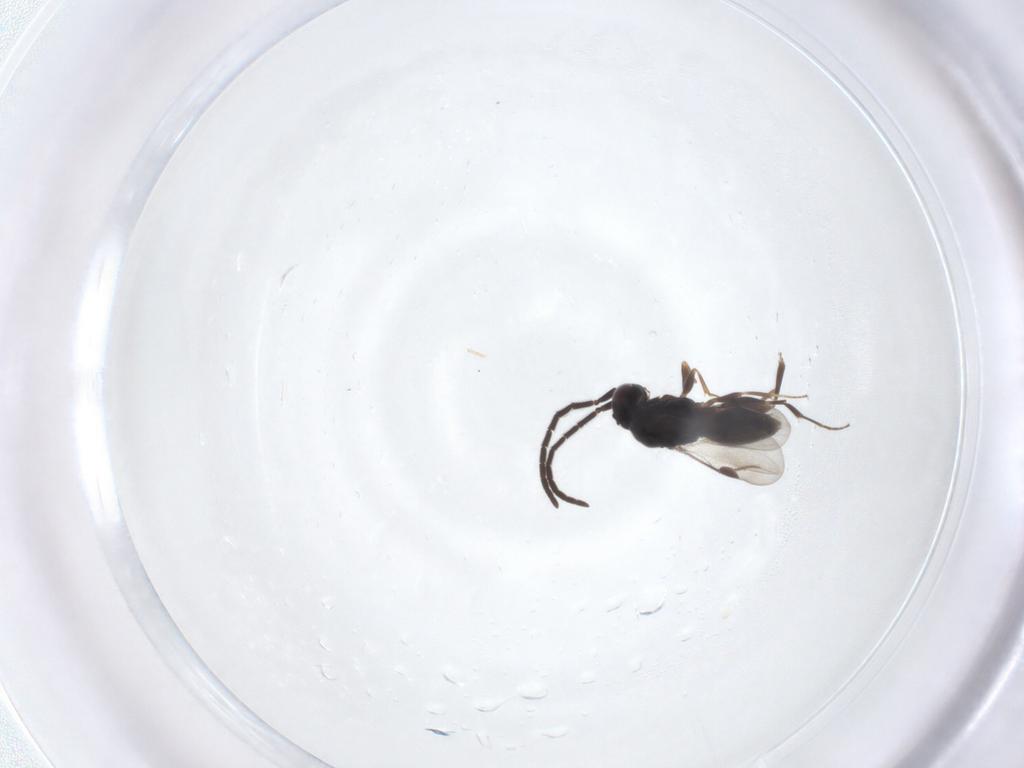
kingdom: Animalia
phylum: Arthropoda
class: Insecta
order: Hymenoptera
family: Megaspilidae
